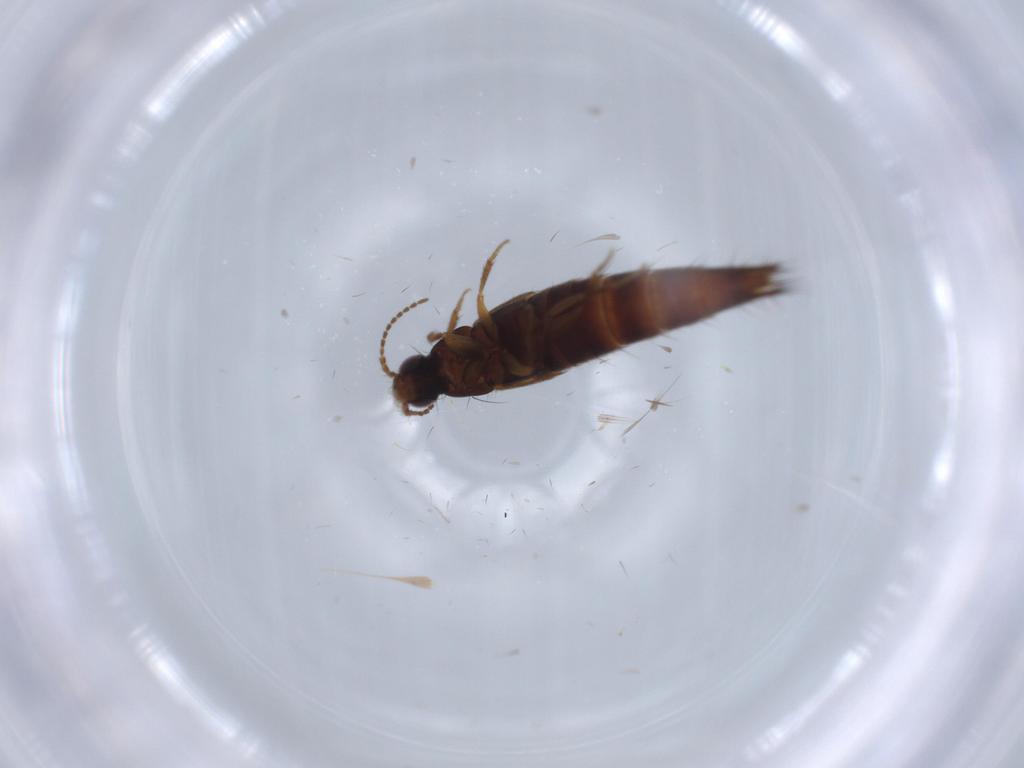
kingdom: Animalia
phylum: Arthropoda
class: Insecta
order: Coleoptera
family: Staphylinidae
